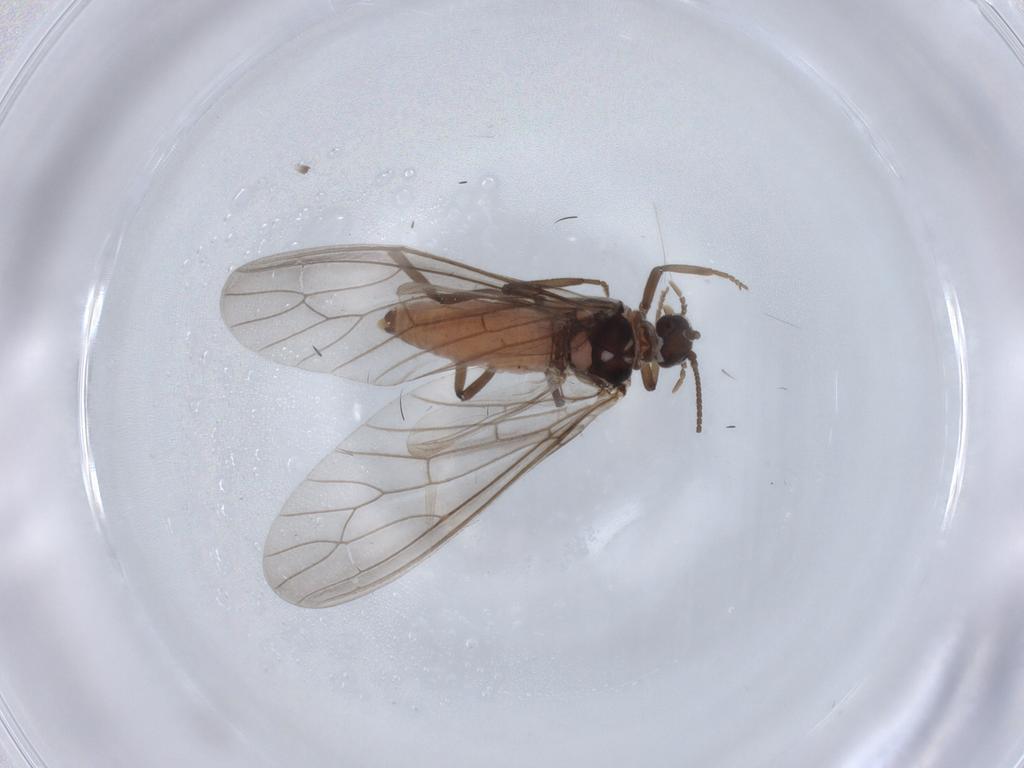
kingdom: Animalia
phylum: Arthropoda
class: Insecta
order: Neuroptera
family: Coniopterygidae
